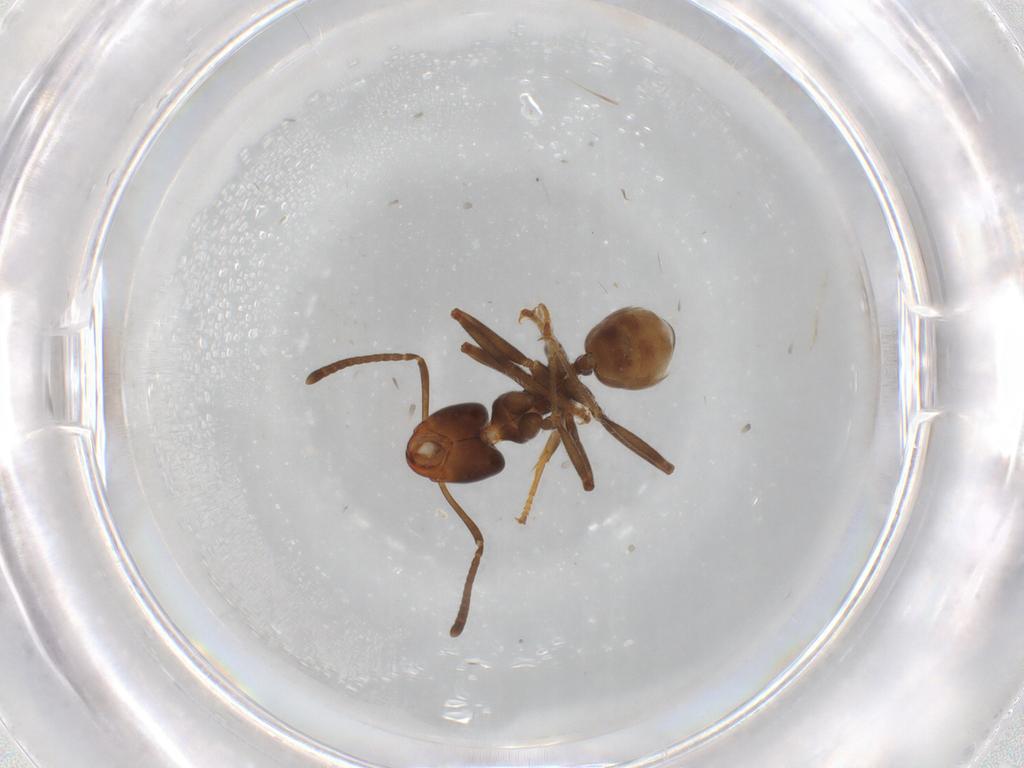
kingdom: Animalia
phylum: Arthropoda
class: Insecta
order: Hymenoptera
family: Formicidae
